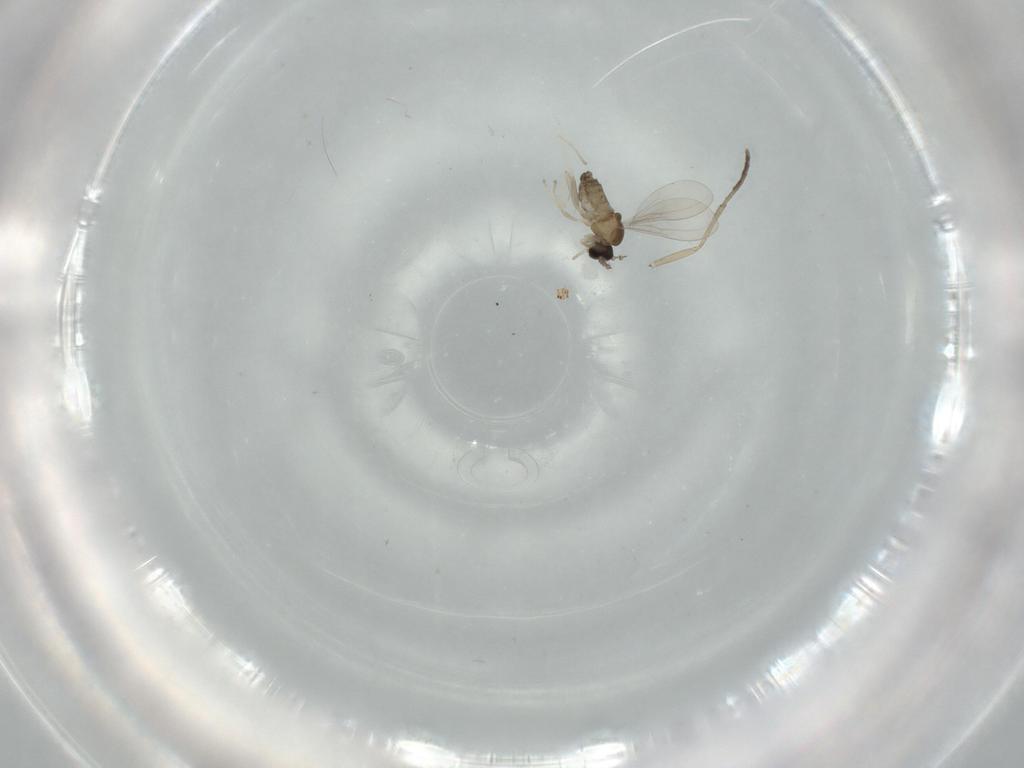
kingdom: Animalia
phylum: Arthropoda
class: Insecta
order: Diptera
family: Cecidomyiidae
